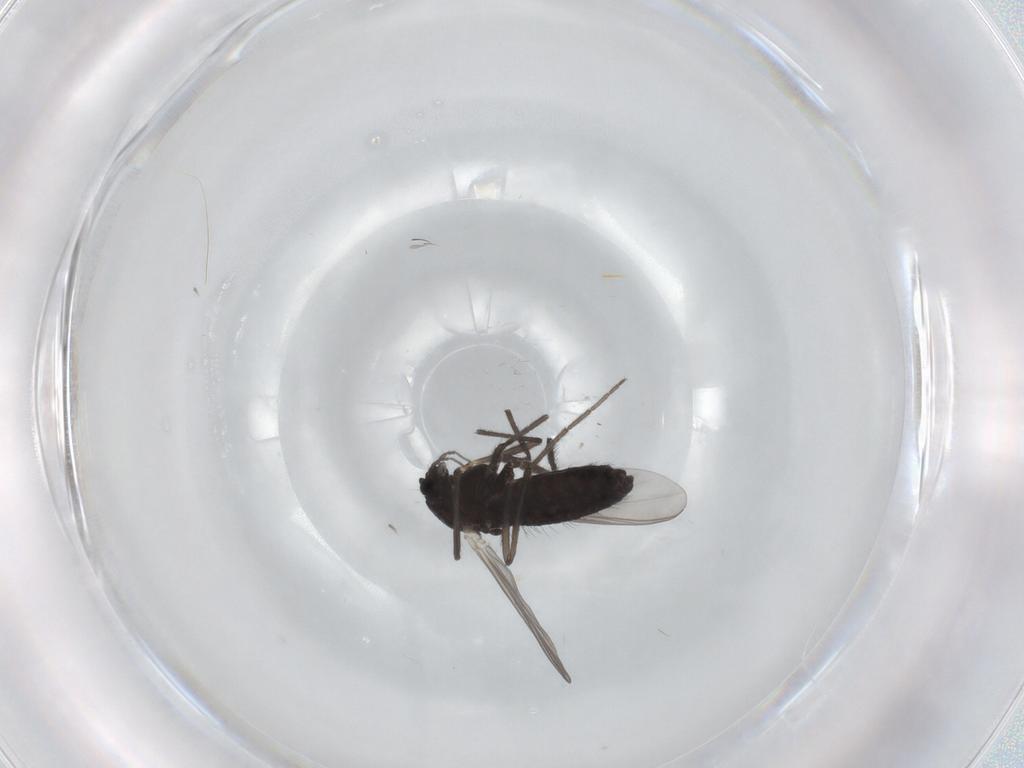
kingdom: Animalia
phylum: Arthropoda
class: Insecta
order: Diptera
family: Chironomidae
